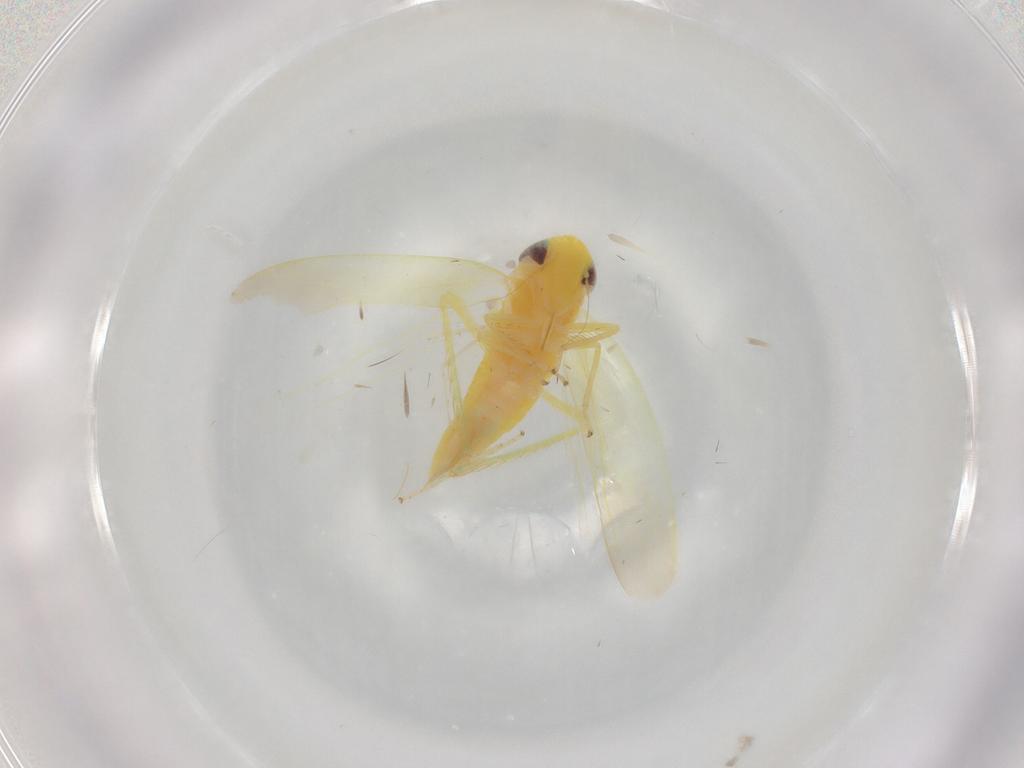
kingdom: Animalia
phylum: Arthropoda
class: Insecta
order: Hemiptera
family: Cicadellidae
